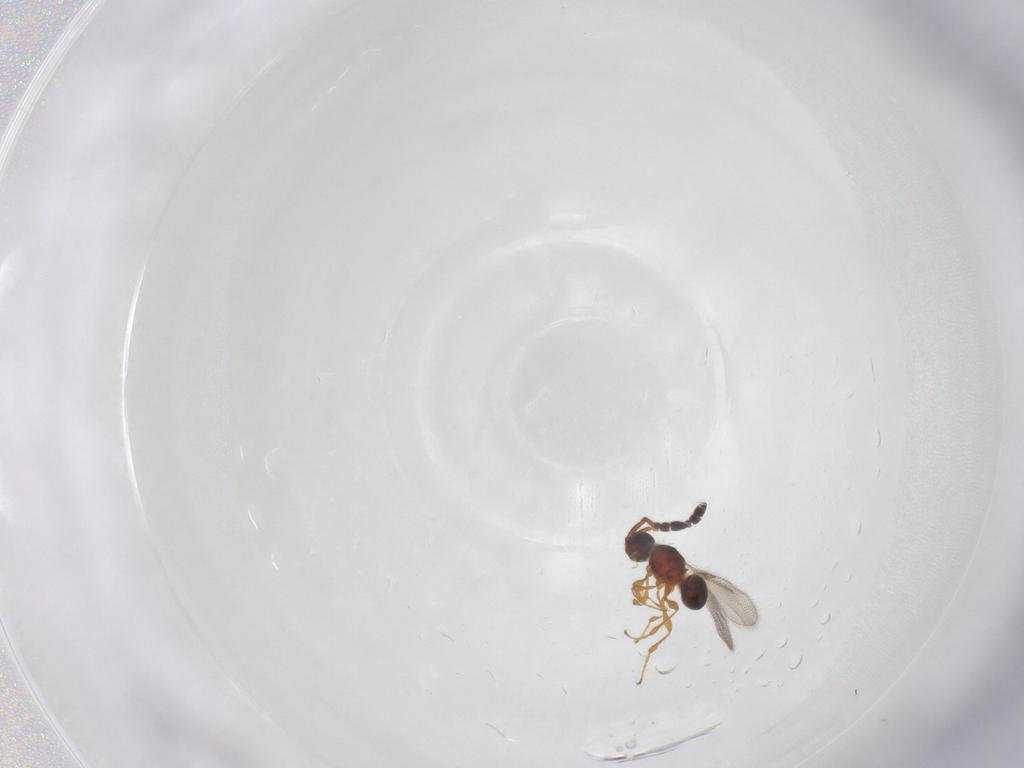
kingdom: Animalia
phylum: Arthropoda
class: Insecta
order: Hymenoptera
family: Diapriidae
